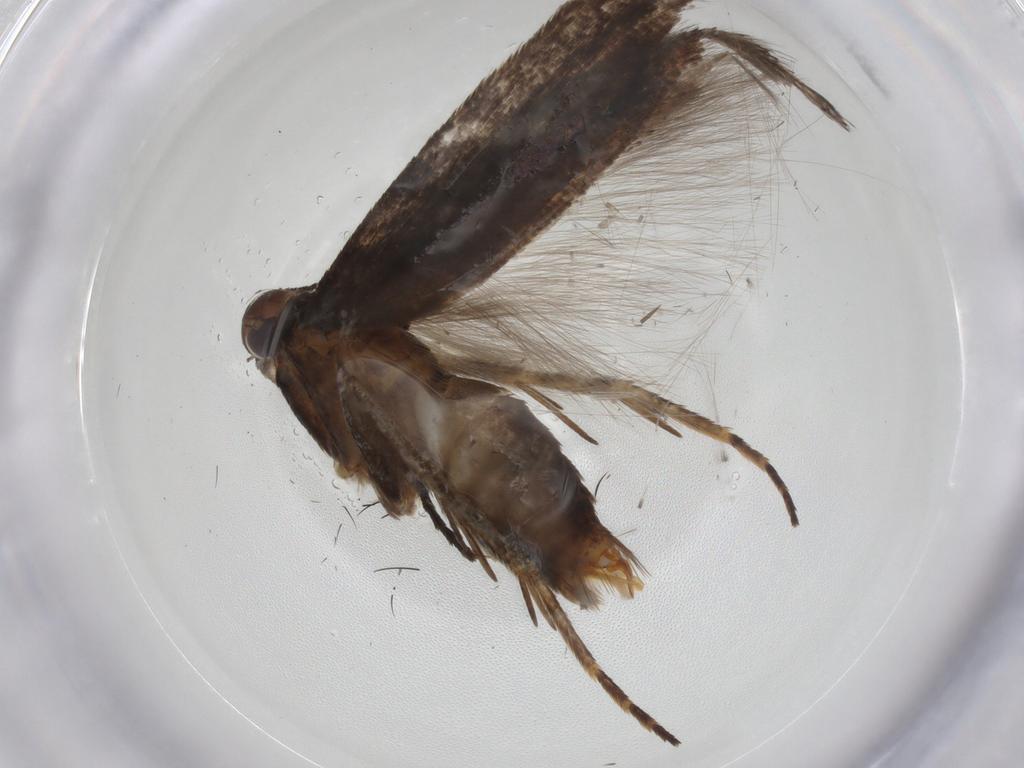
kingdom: Animalia
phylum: Arthropoda
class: Insecta
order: Lepidoptera
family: Gelechiidae
